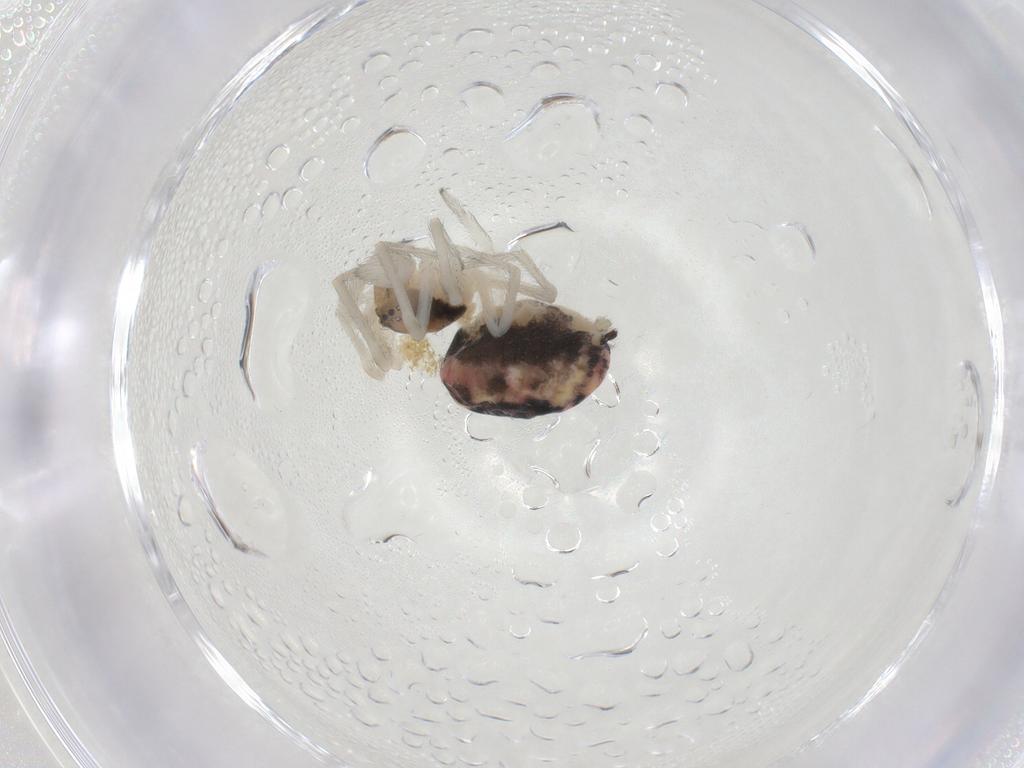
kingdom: Animalia
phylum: Arthropoda
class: Arachnida
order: Araneae
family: Dictynidae
